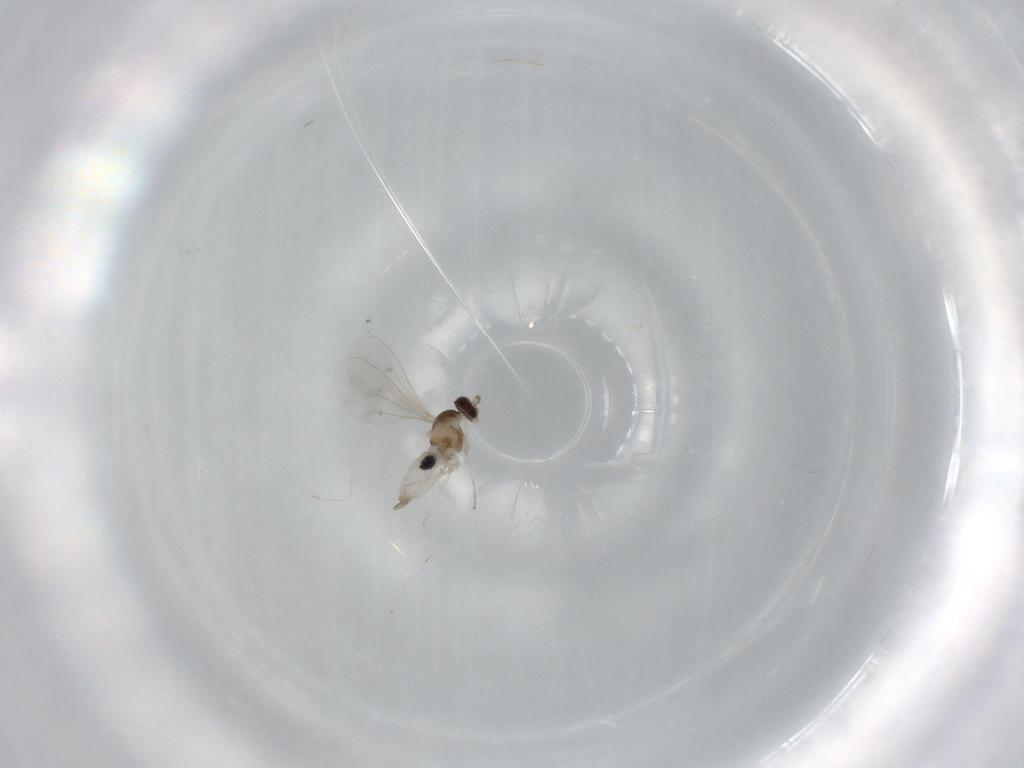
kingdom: Animalia
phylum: Arthropoda
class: Insecta
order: Diptera
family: Cecidomyiidae
